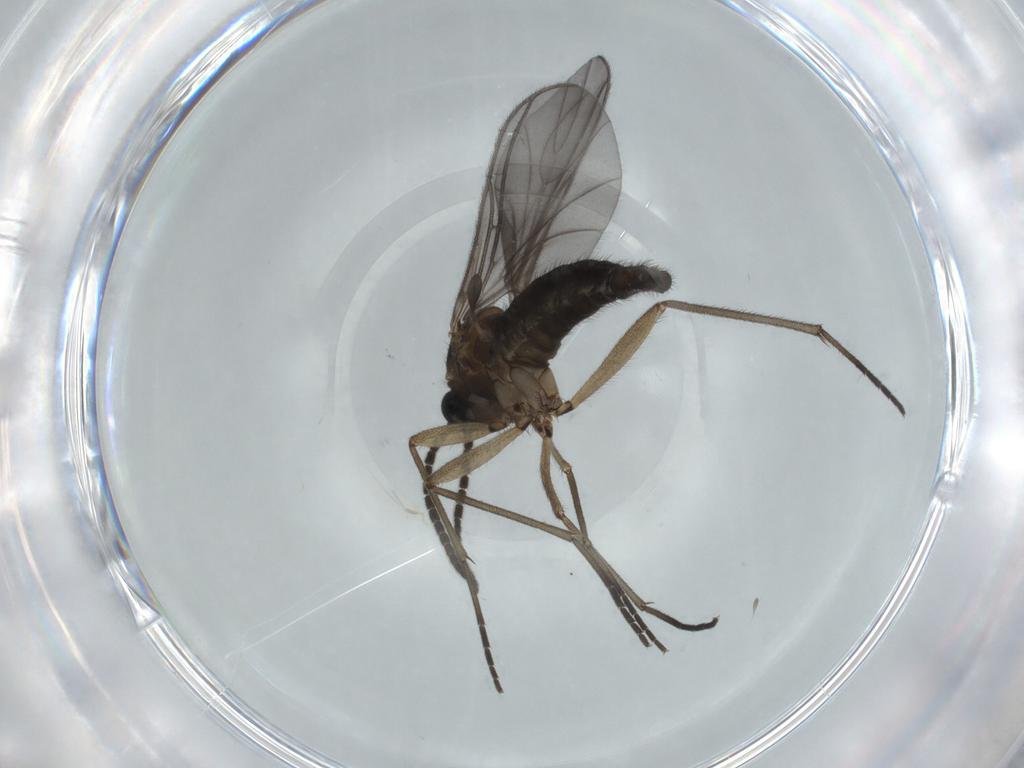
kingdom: Animalia
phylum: Arthropoda
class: Insecta
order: Diptera
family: Sciaridae
